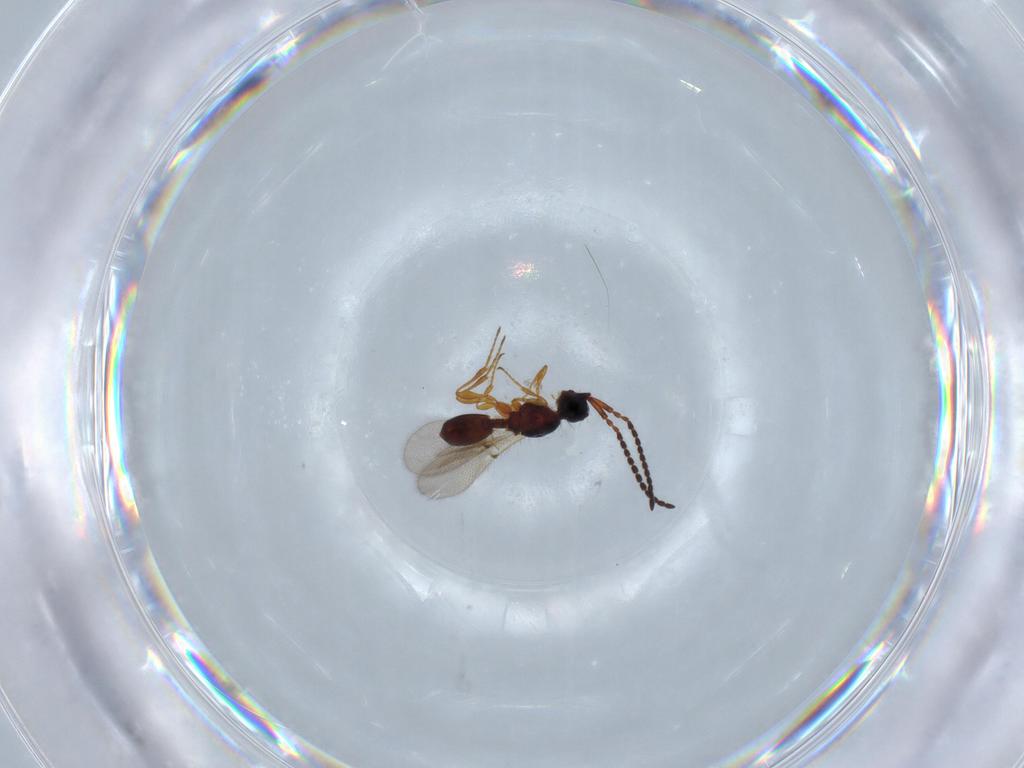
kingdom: Animalia
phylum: Arthropoda
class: Insecta
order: Hymenoptera
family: Diapriidae
